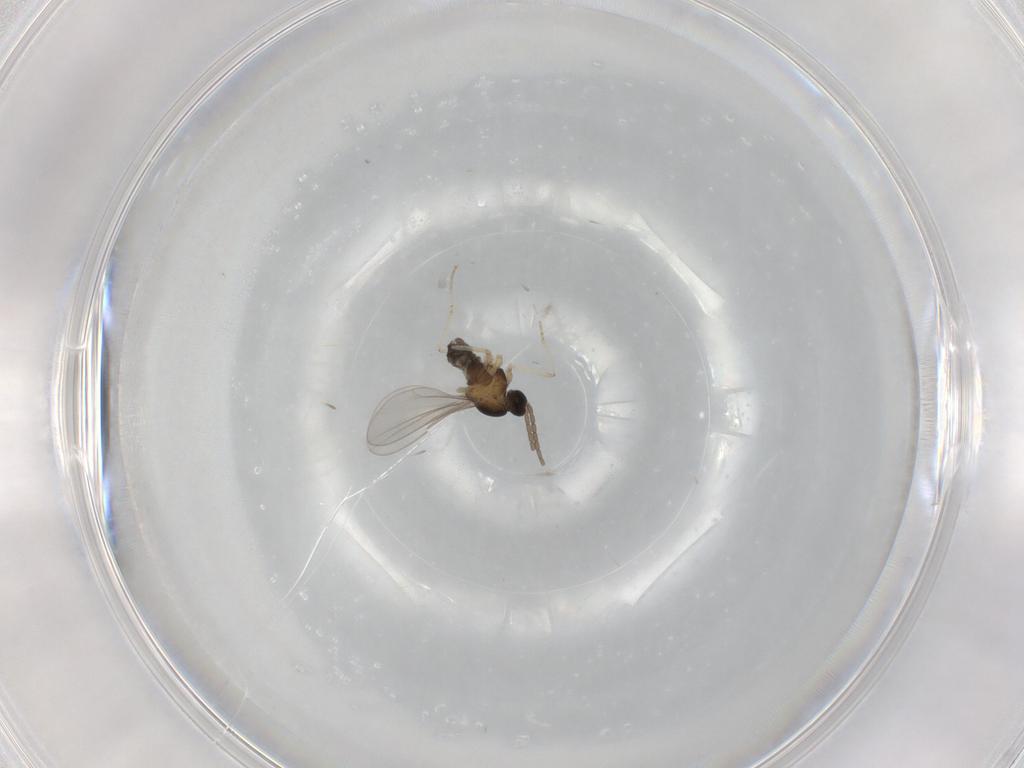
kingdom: Animalia
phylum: Arthropoda
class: Insecta
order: Diptera
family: Cecidomyiidae
